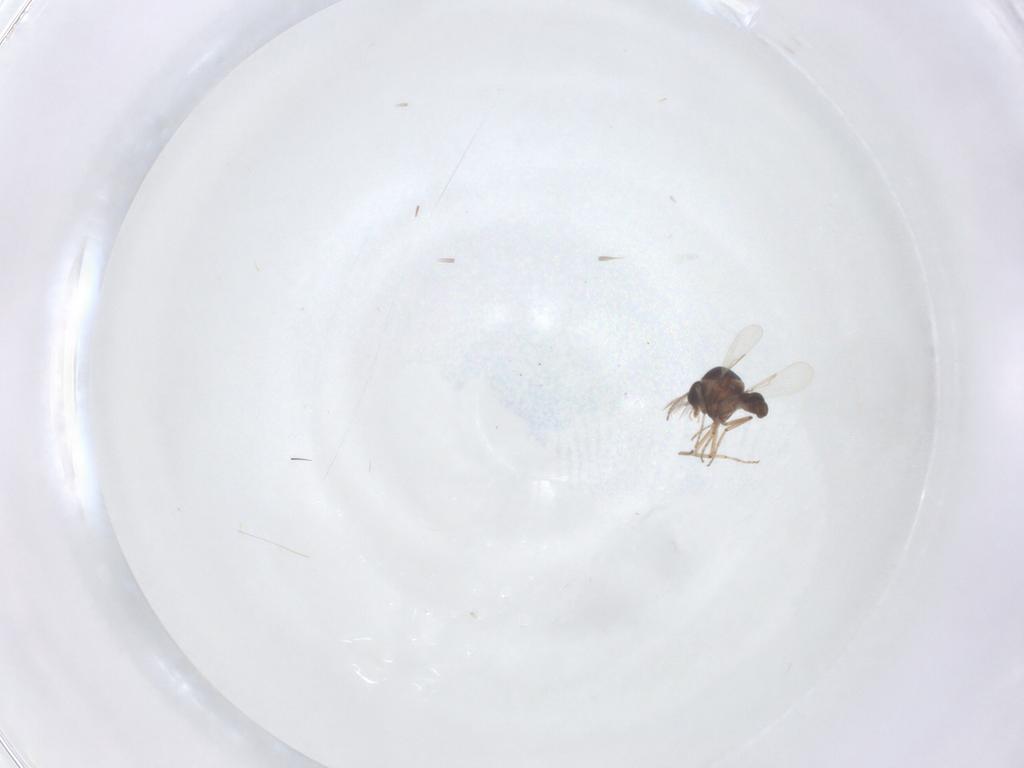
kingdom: Animalia
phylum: Arthropoda
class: Insecta
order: Diptera
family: Ceratopogonidae
